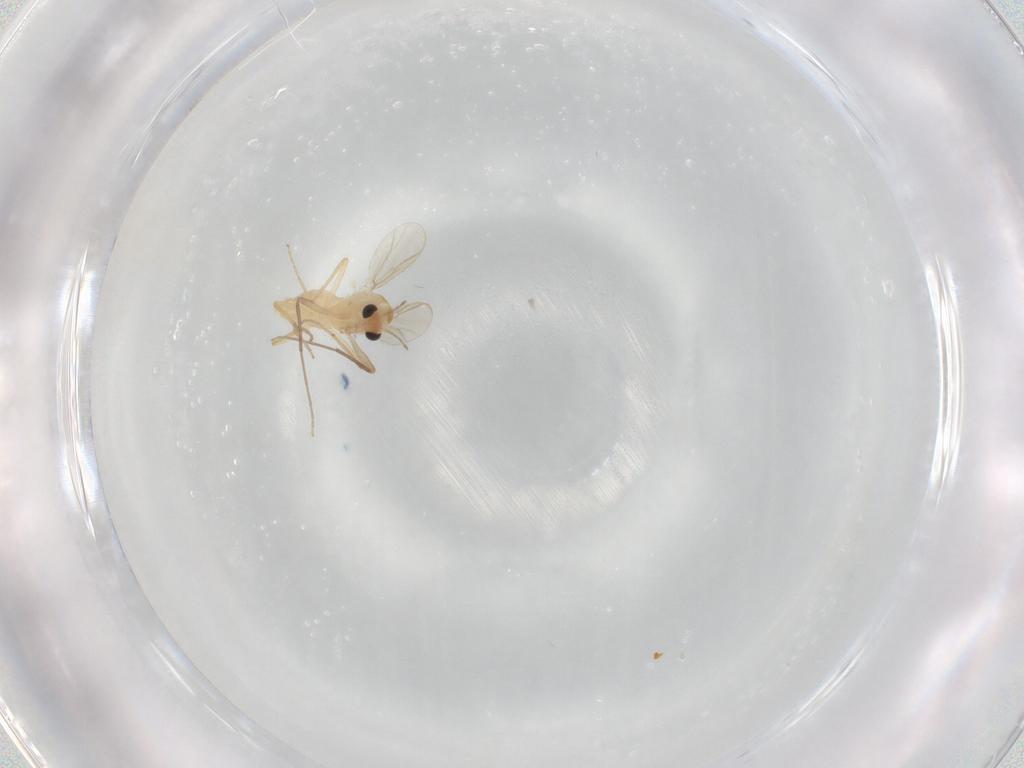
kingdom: Animalia
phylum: Arthropoda
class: Insecta
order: Diptera
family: Chironomidae
